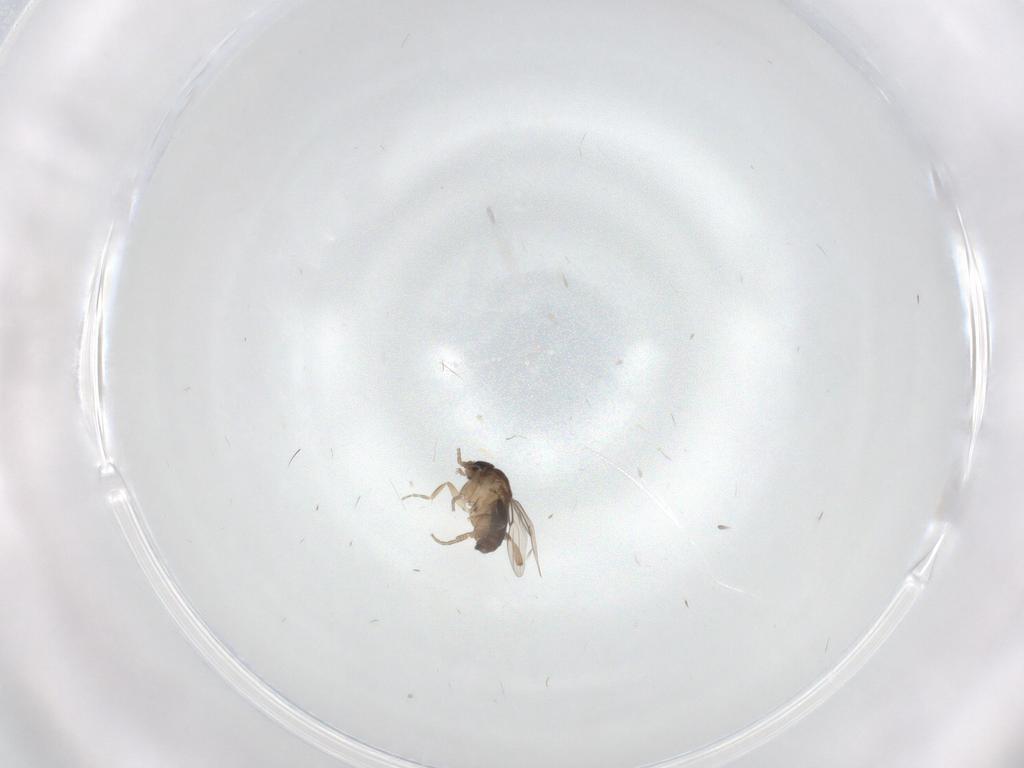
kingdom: Animalia
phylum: Arthropoda
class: Insecta
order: Diptera
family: Phoridae
